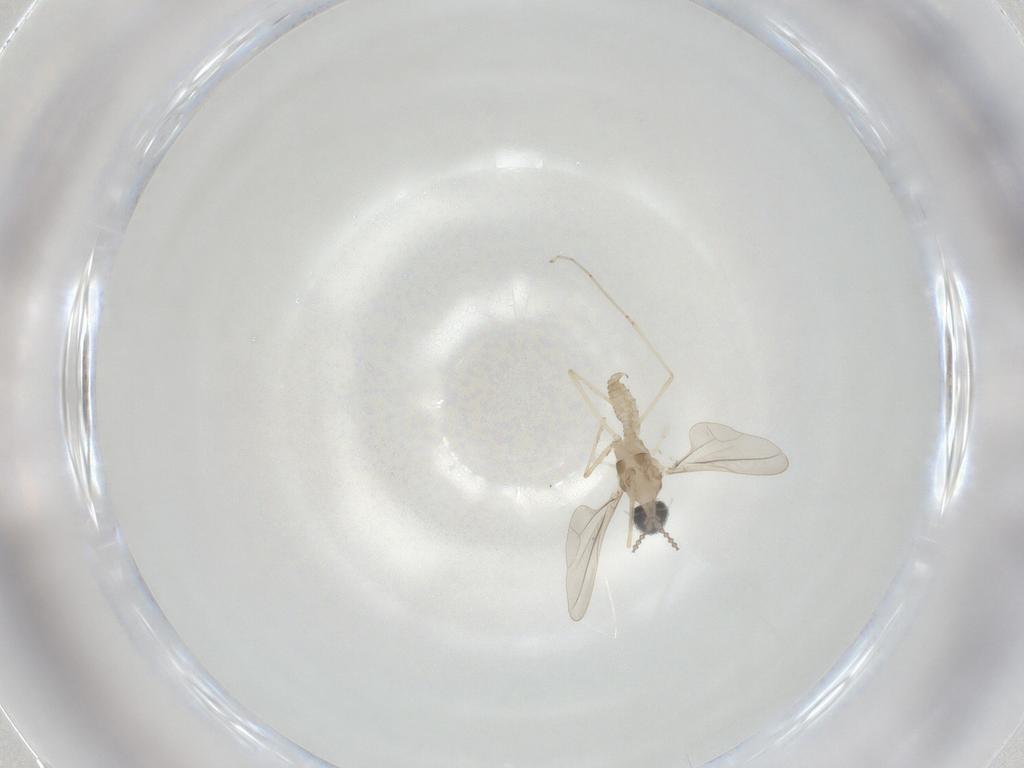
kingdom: Animalia
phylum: Arthropoda
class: Insecta
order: Diptera
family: Cecidomyiidae
